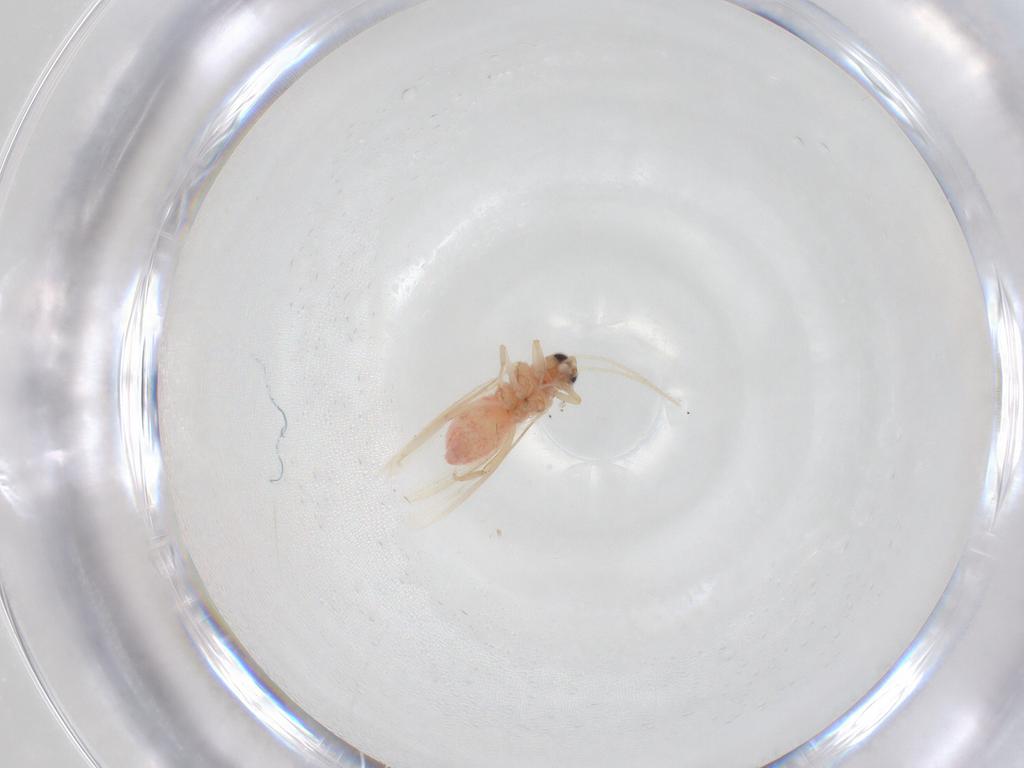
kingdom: Animalia
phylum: Arthropoda
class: Insecta
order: Neuroptera
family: Coniopterygidae
